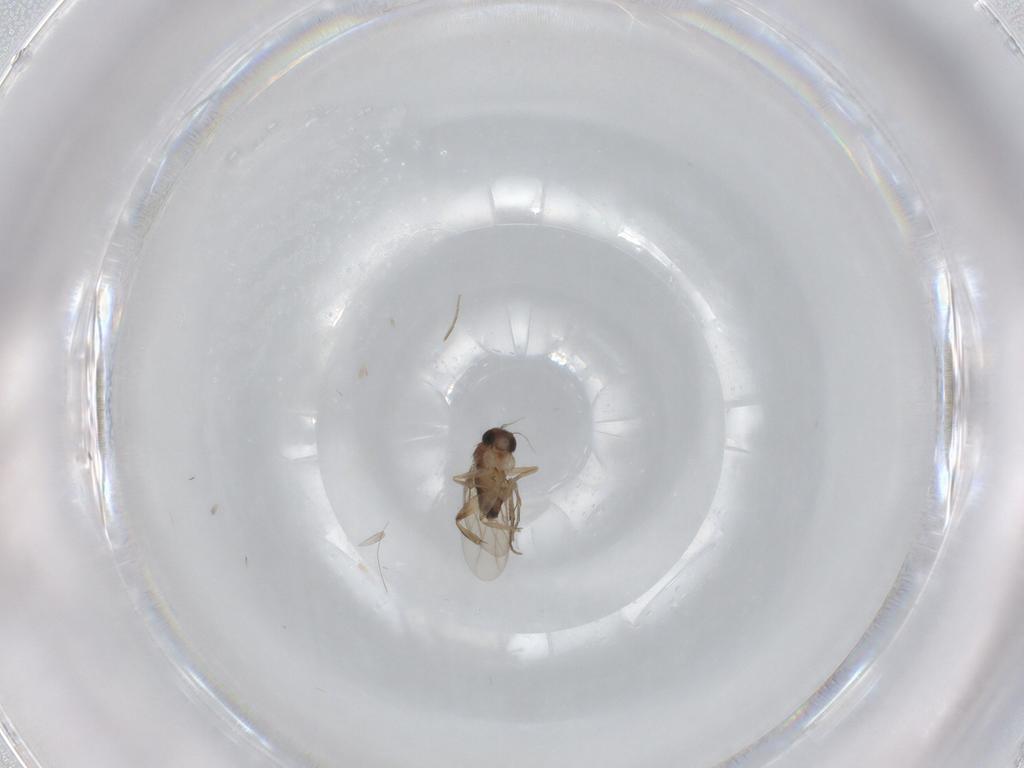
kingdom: Animalia
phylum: Arthropoda
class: Insecta
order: Diptera
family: Phoridae
